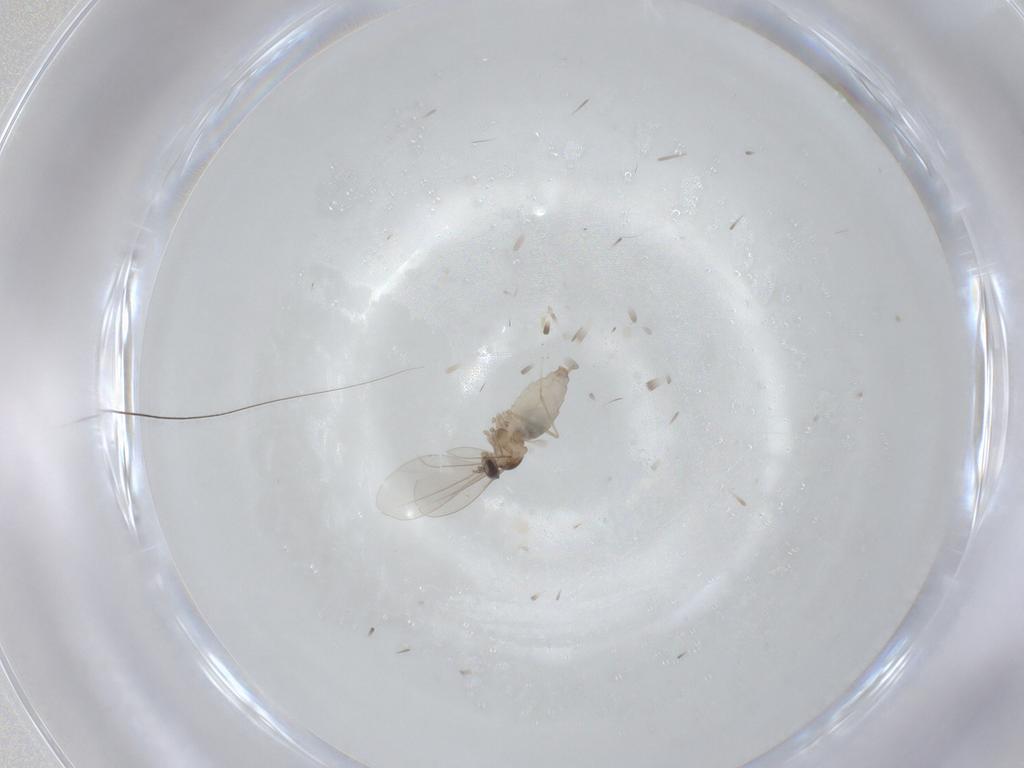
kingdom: Animalia
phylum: Arthropoda
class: Insecta
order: Diptera
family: Cecidomyiidae
